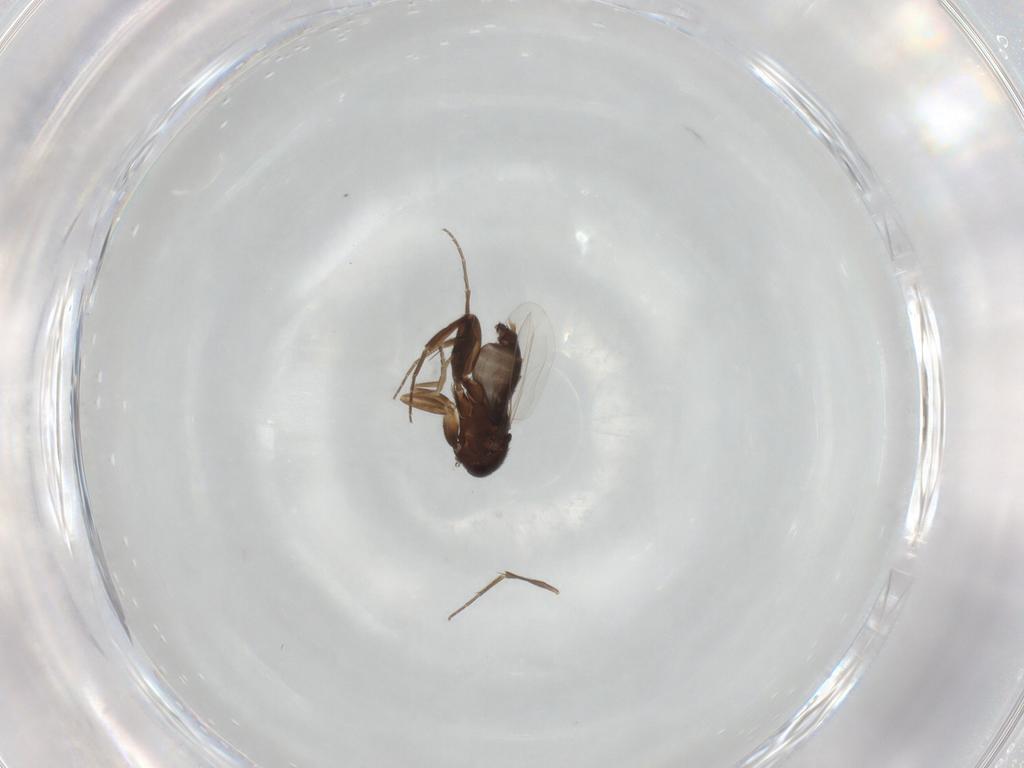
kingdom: Animalia
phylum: Arthropoda
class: Insecta
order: Diptera
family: Phoridae
